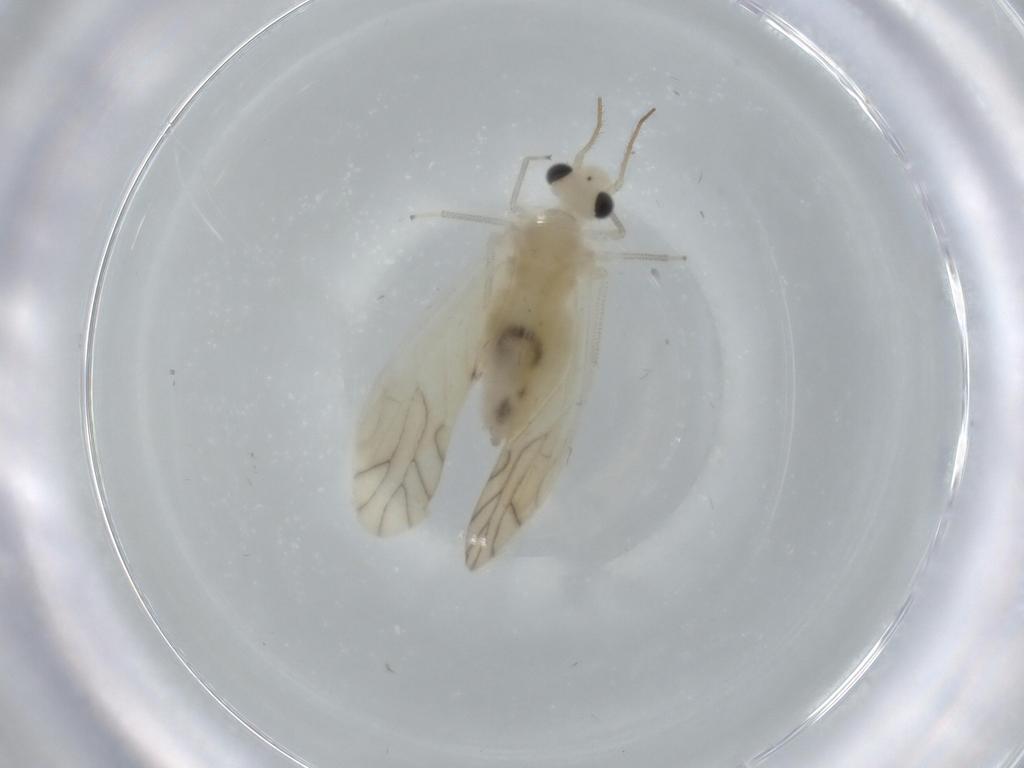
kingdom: Animalia
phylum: Arthropoda
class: Insecta
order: Psocodea
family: Caeciliusidae
